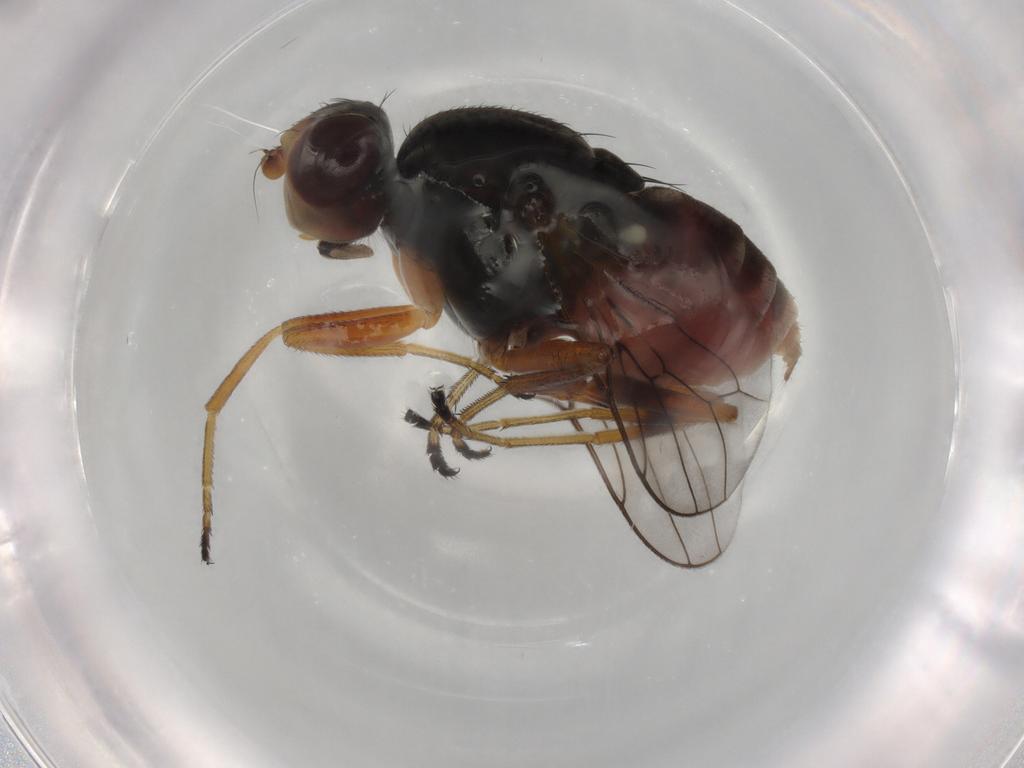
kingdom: Animalia
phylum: Arthropoda
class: Insecta
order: Diptera
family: Chloropidae
